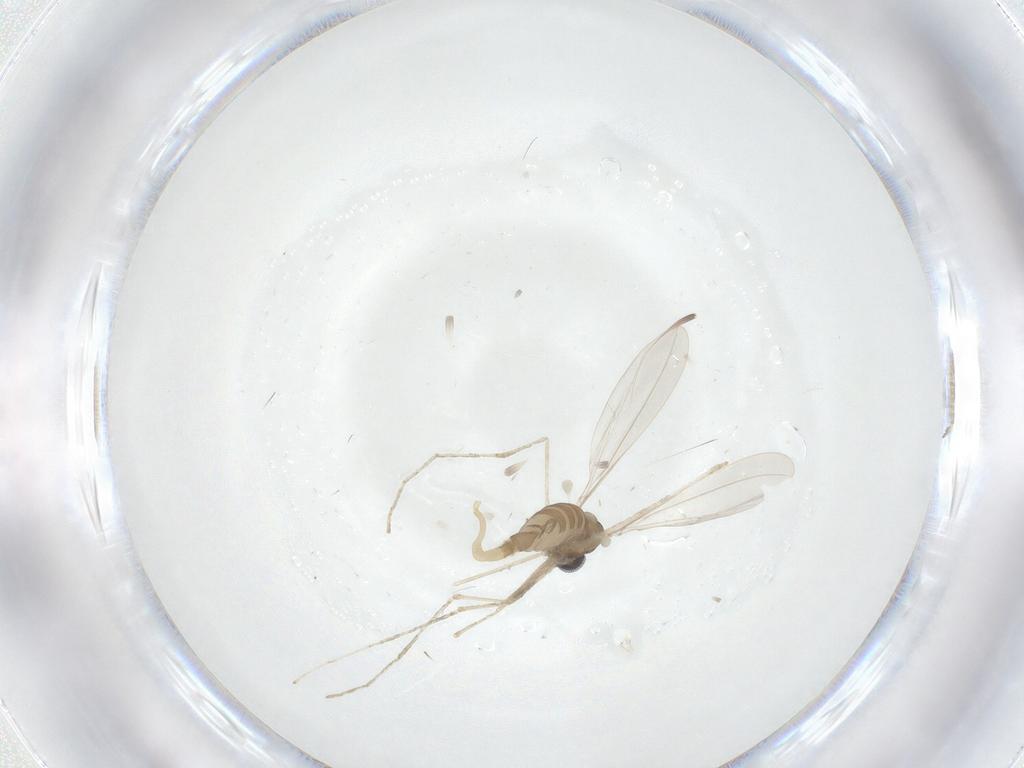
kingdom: Animalia
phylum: Arthropoda
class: Insecta
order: Diptera
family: Cecidomyiidae
